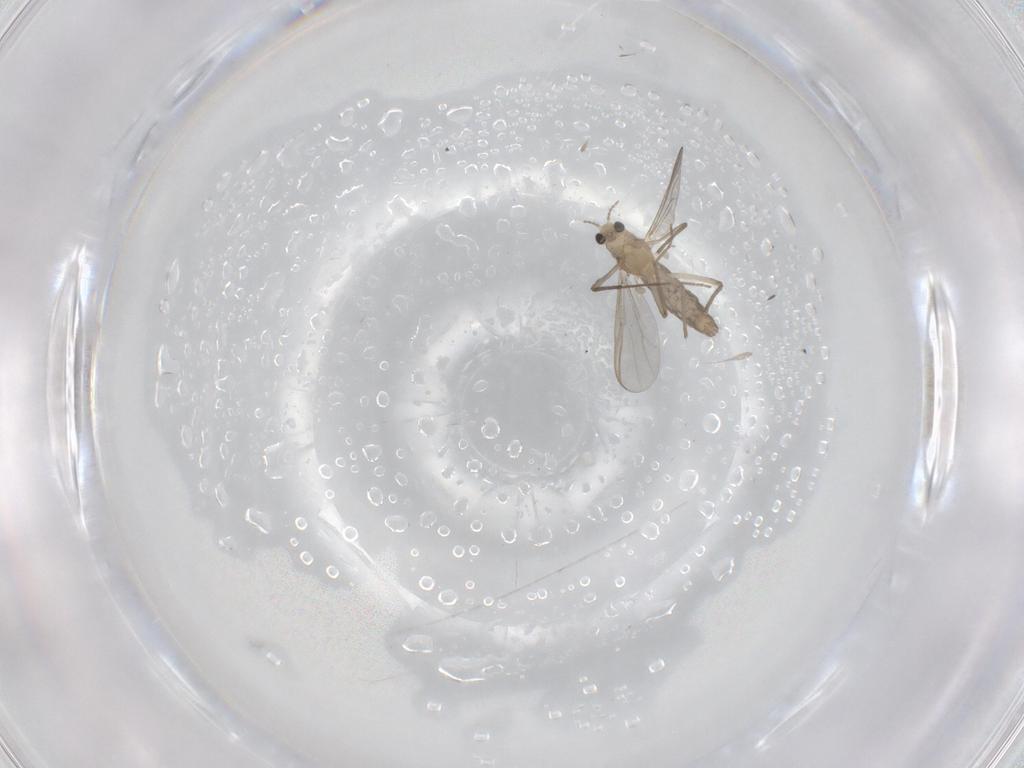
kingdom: Animalia
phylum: Arthropoda
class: Insecta
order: Diptera
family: Chironomidae
